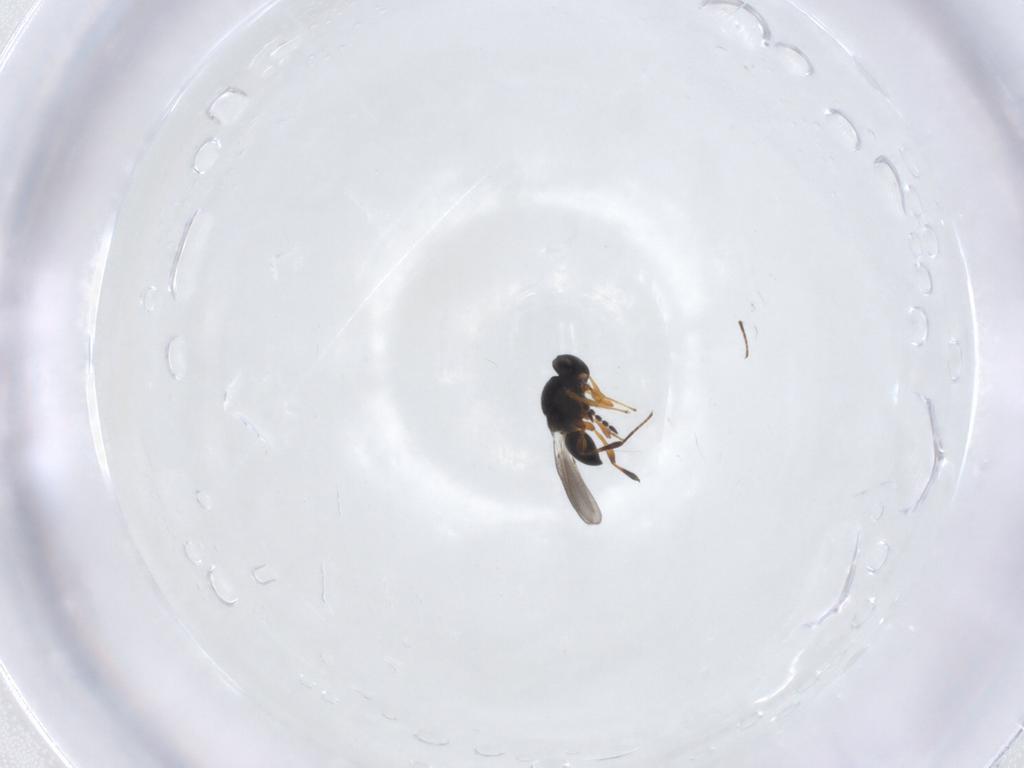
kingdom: Animalia
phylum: Arthropoda
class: Insecta
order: Hymenoptera
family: Platygastridae
